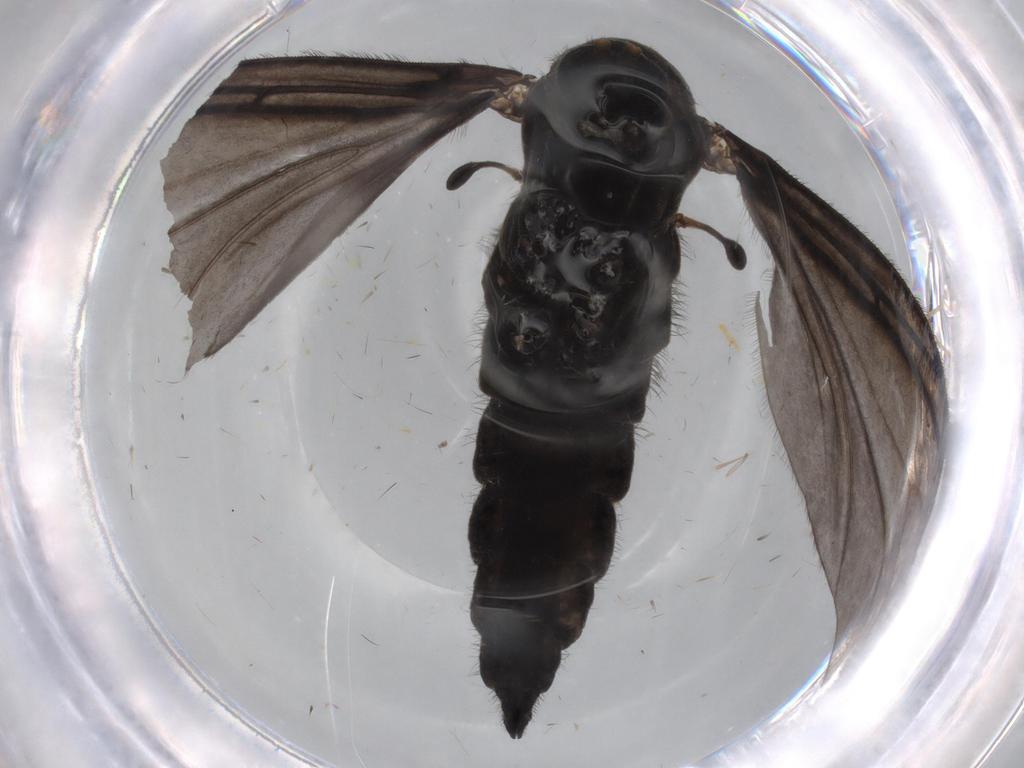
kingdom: Animalia
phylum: Arthropoda
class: Insecta
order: Diptera
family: Sciaridae
